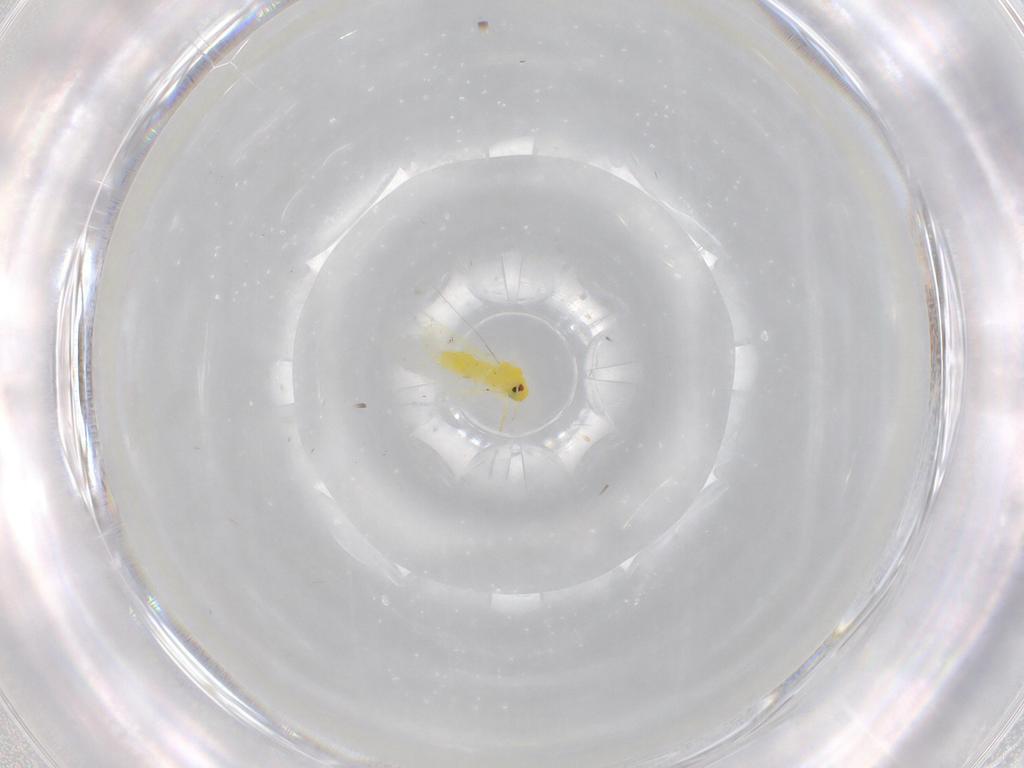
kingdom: Animalia
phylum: Arthropoda
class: Insecta
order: Hemiptera
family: Aleyrodidae
